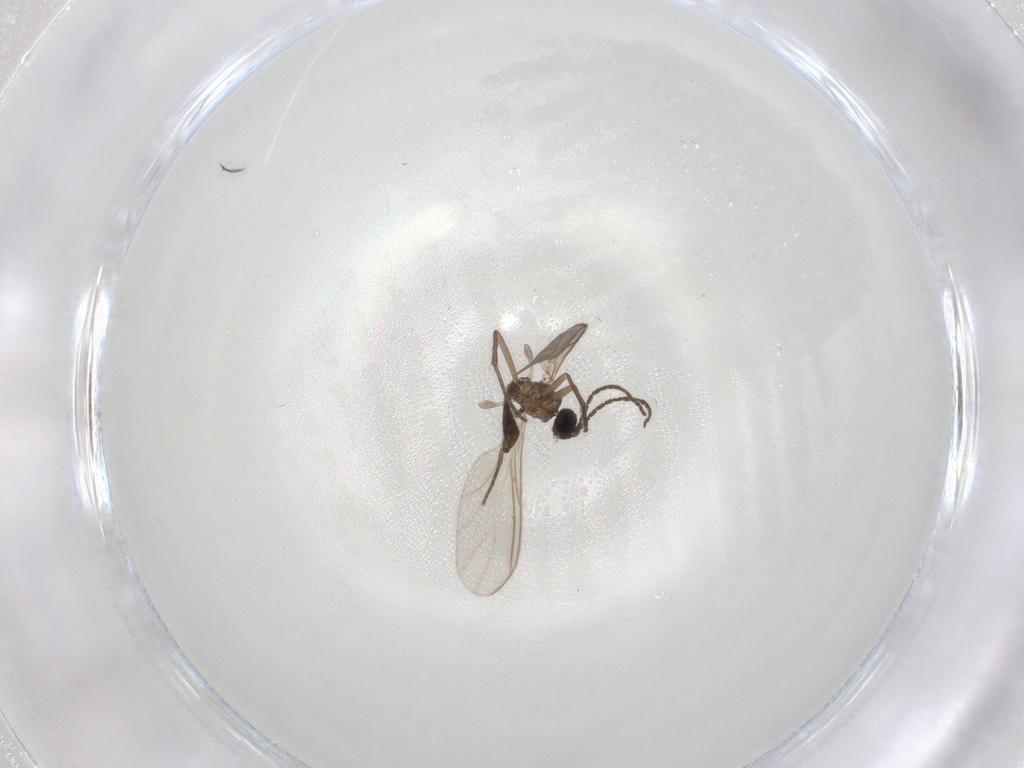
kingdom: Animalia
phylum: Arthropoda
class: Insecta
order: Diptera
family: Sciaridae
